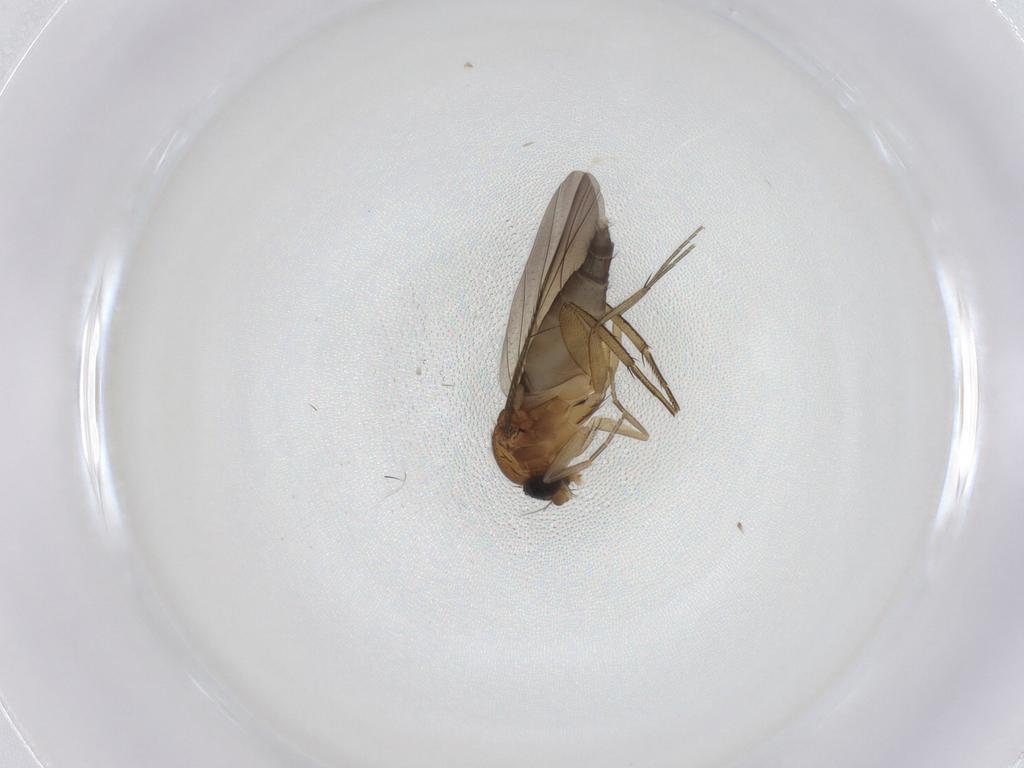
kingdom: Animalia
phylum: Arthropoda
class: Insecta
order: Diptera
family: Phoridae
